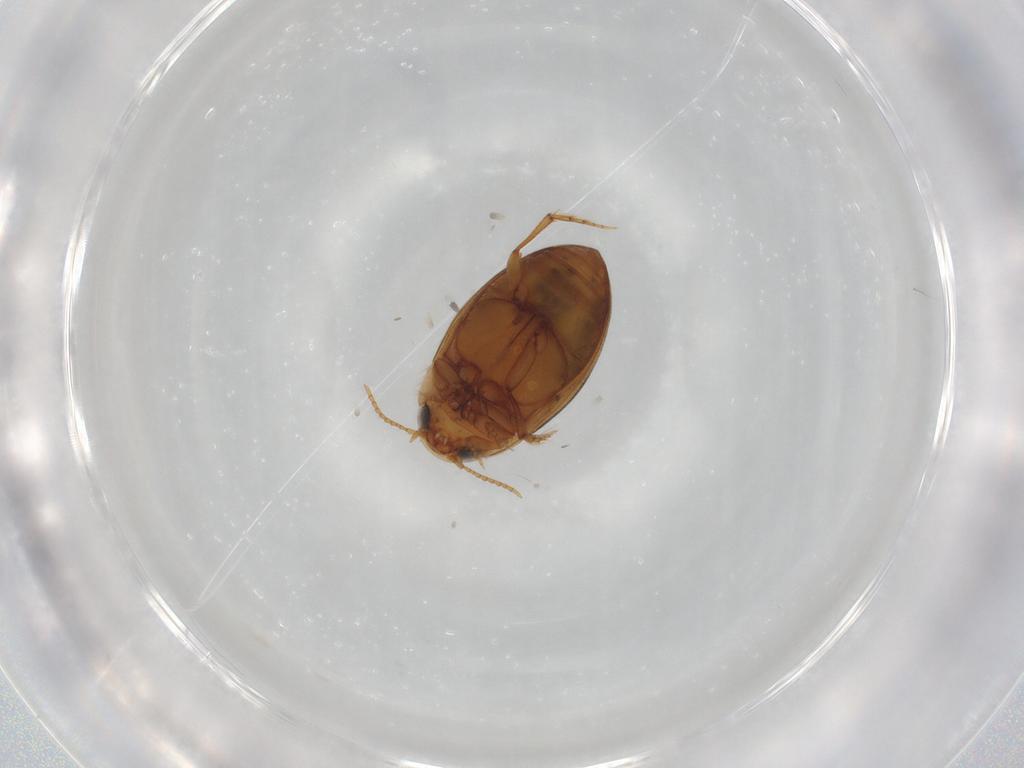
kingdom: Animalia
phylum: Arthropoda
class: Insecta
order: Coleoptera
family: Dytiscidae
